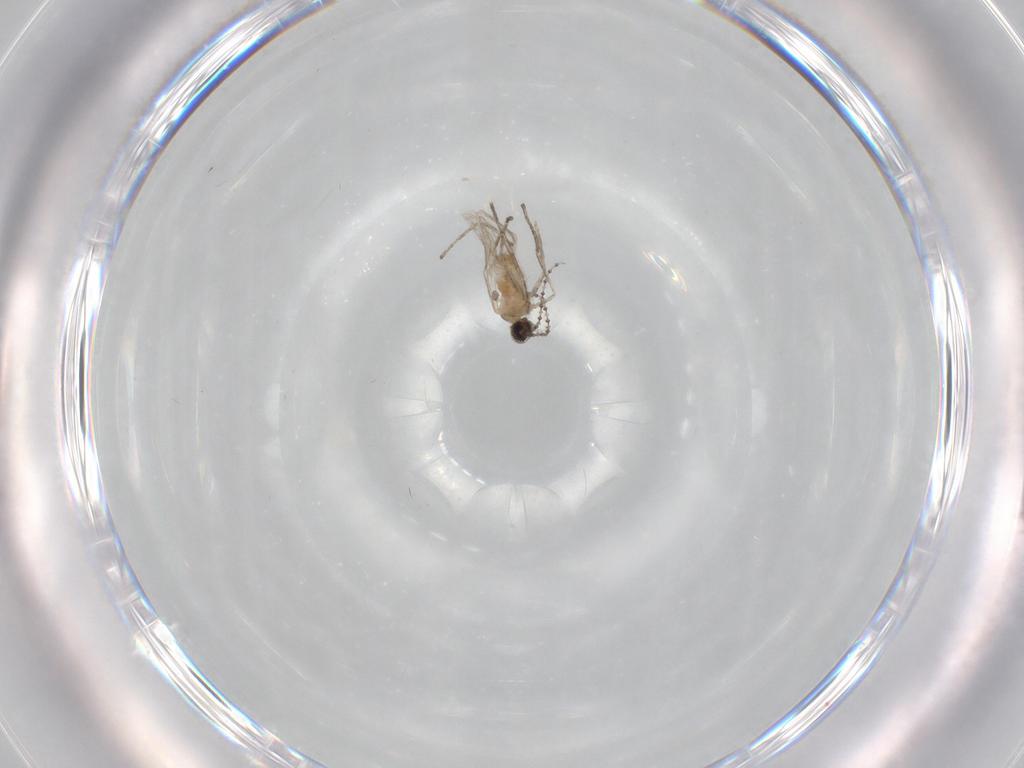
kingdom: Animalia
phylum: Arthropoda
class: Insecta
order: Diptera
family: Cecidomyiidae
